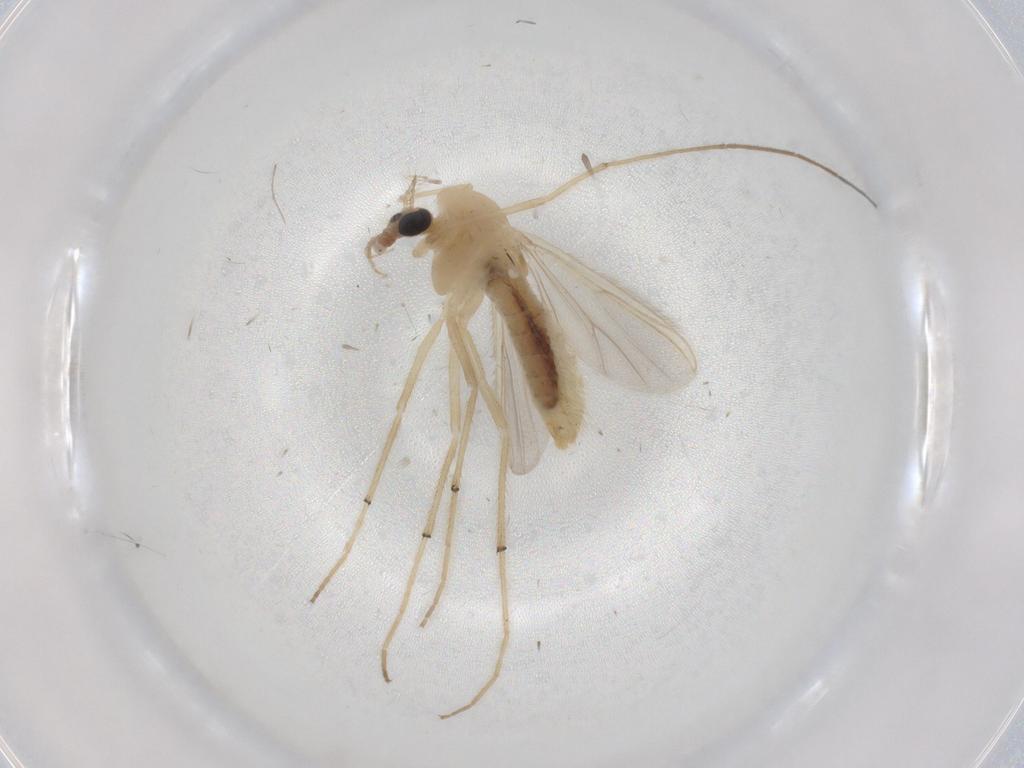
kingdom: Animalia
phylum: Arthropoda
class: Insecta
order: Diptera
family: Chironomidae
